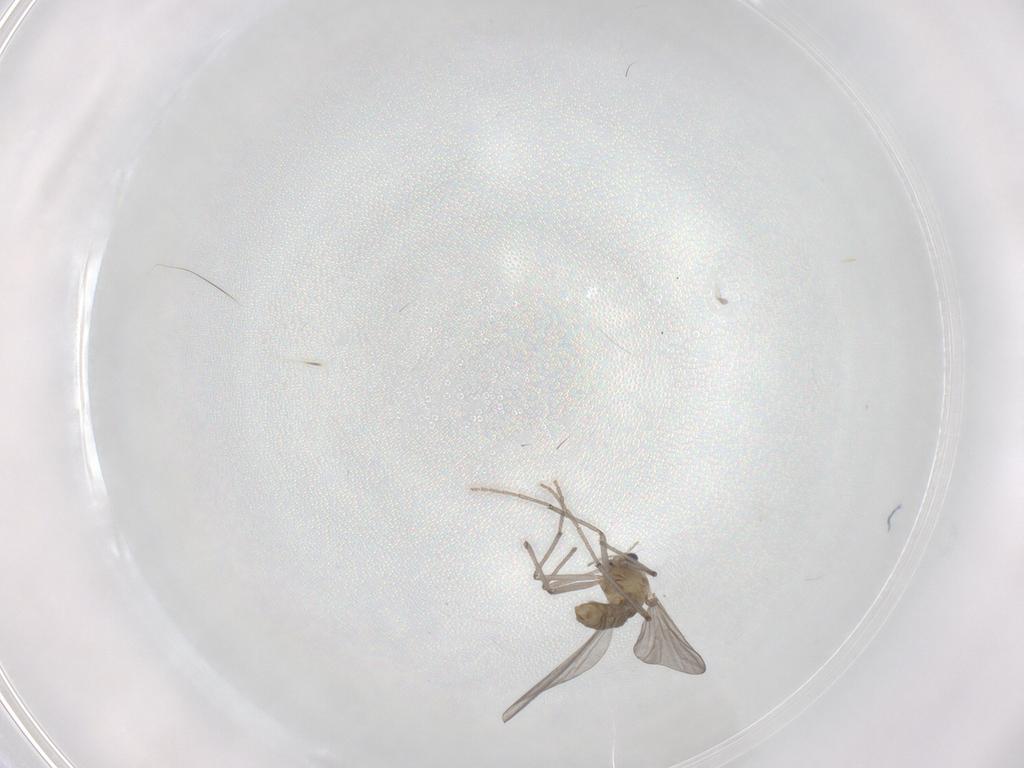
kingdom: Animalia
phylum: Arthropoda
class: Insecta
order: Diptera
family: Chironomidae
